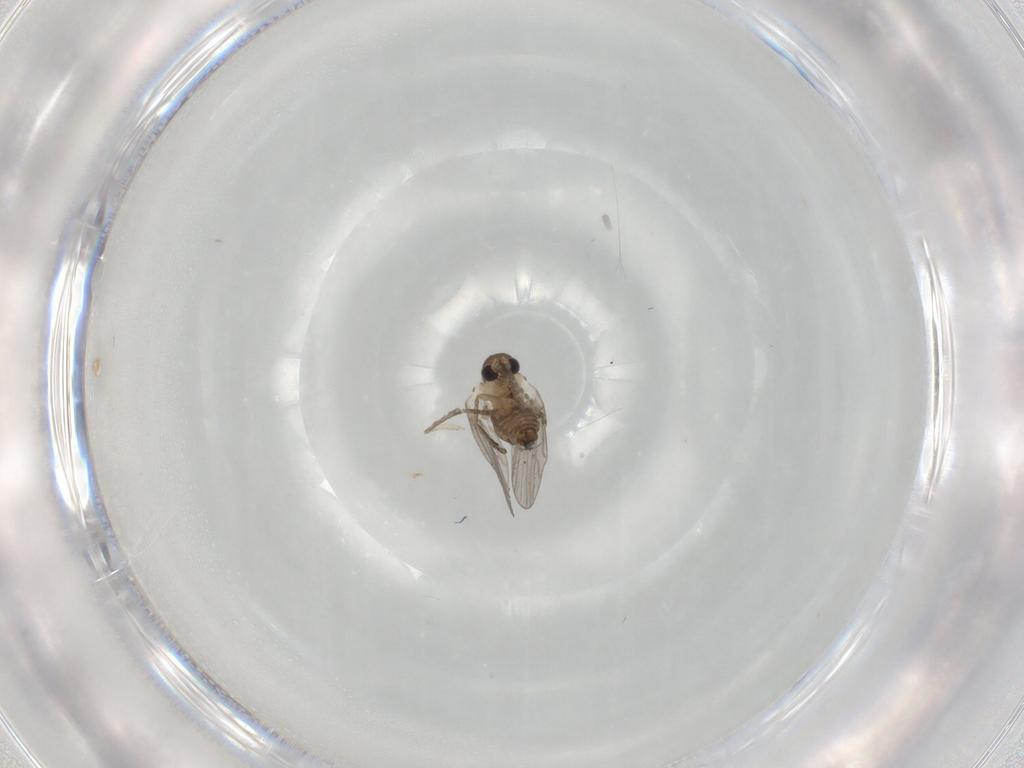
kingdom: Animalia
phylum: Arthropoda
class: Insecta
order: Diptera
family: Psychodidae
